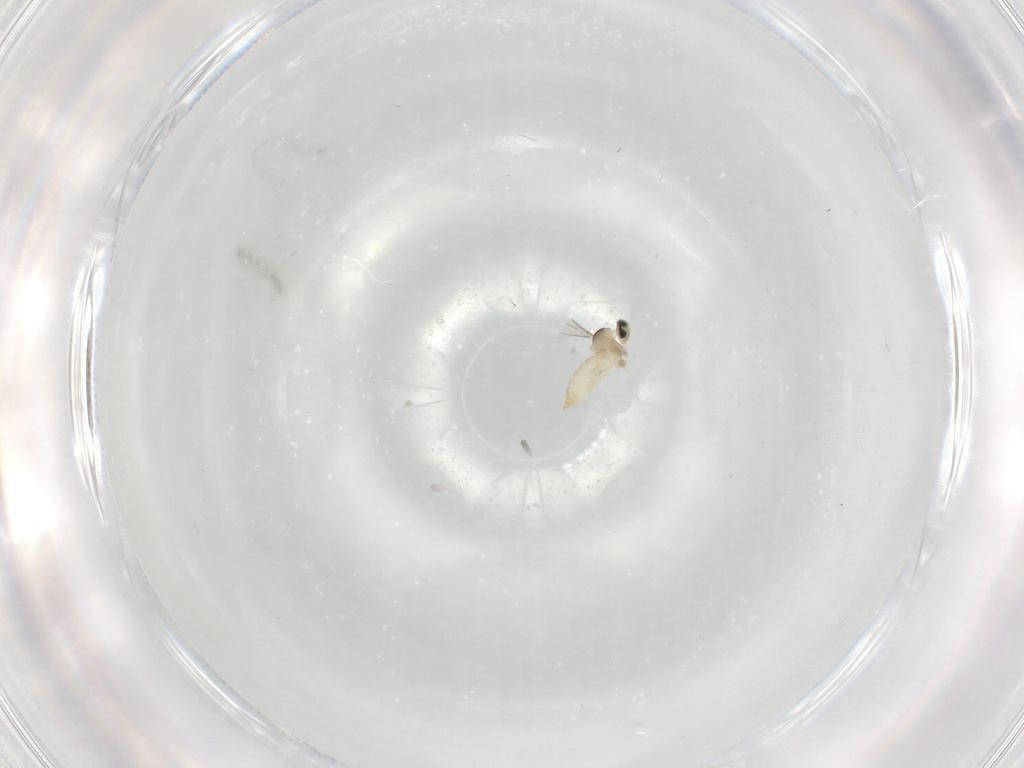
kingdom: Animalia
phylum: Arthropoda
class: Insecta
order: Diptera
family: Cecidomyiidae
